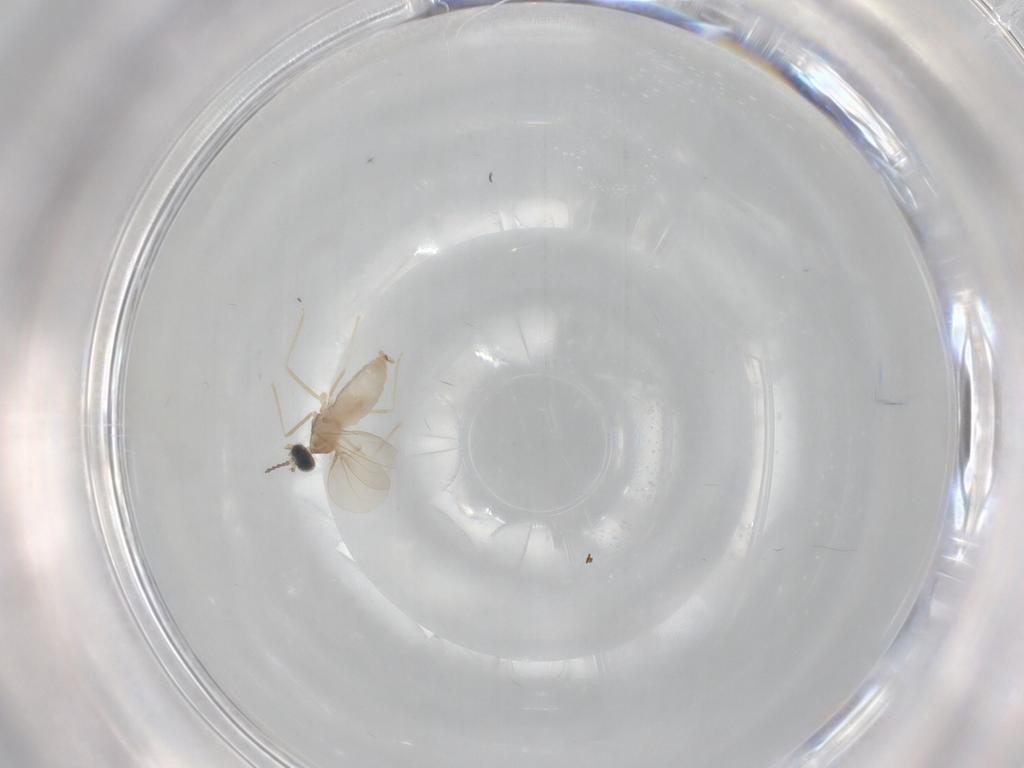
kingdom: Animalia
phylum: Arthropoda
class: Insecta
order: Diptera
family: Cecidomyiidae
